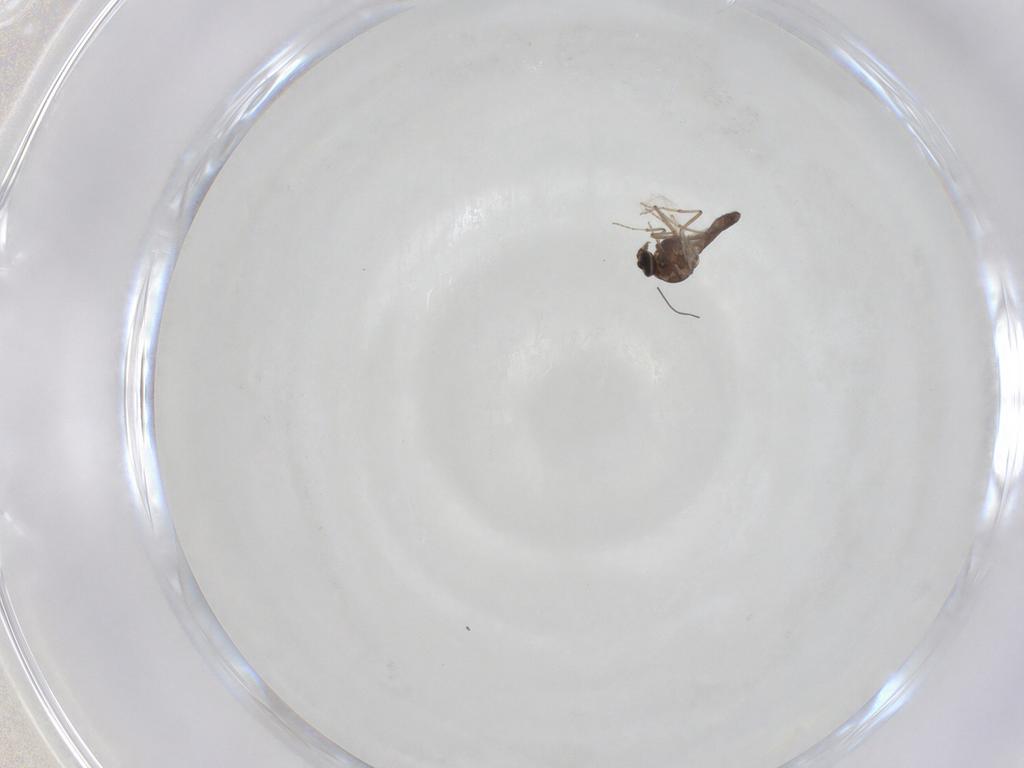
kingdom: Animalia
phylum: Arthropoda
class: Insecta
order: Diptera
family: Ceratopogonidae
